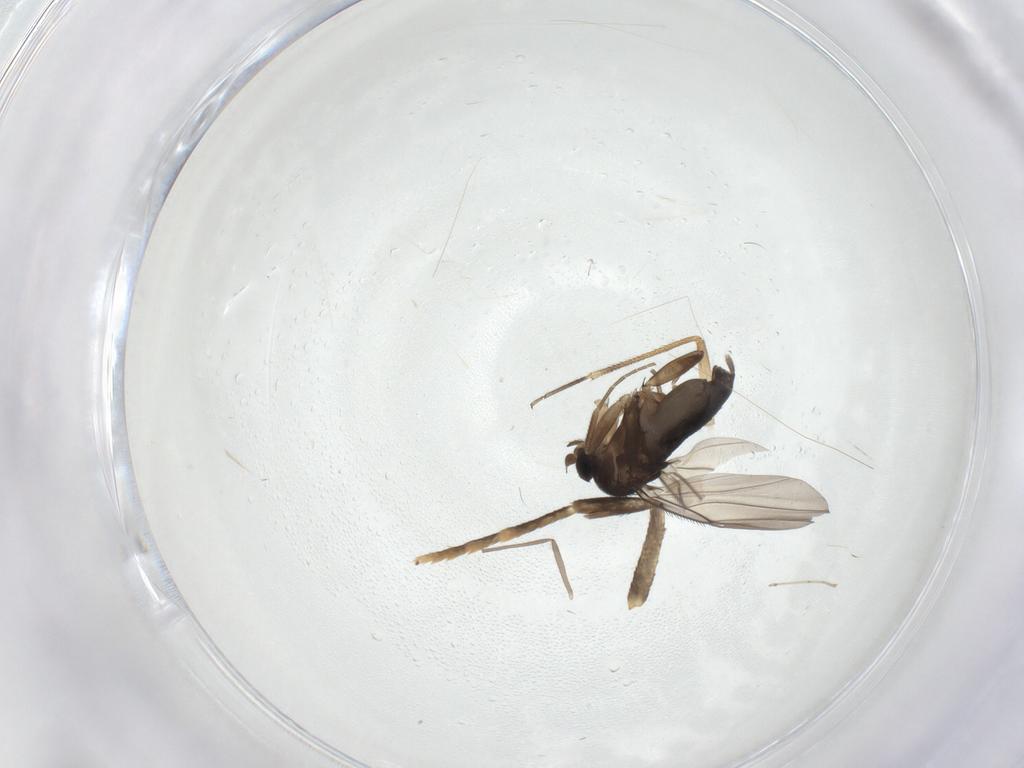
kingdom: Animalia
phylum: Arthropoda
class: Insecta
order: Diptera
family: Phoridae
